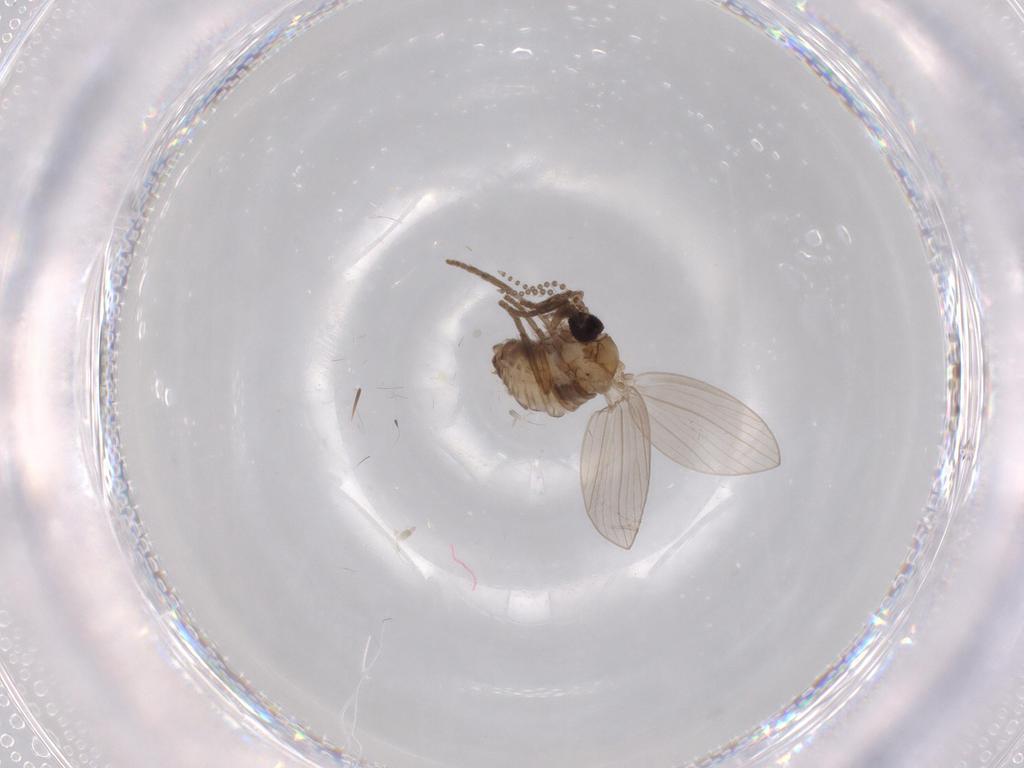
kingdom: Animalia
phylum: Arthropoda
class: Insecta
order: Diptera
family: Psychodidae
